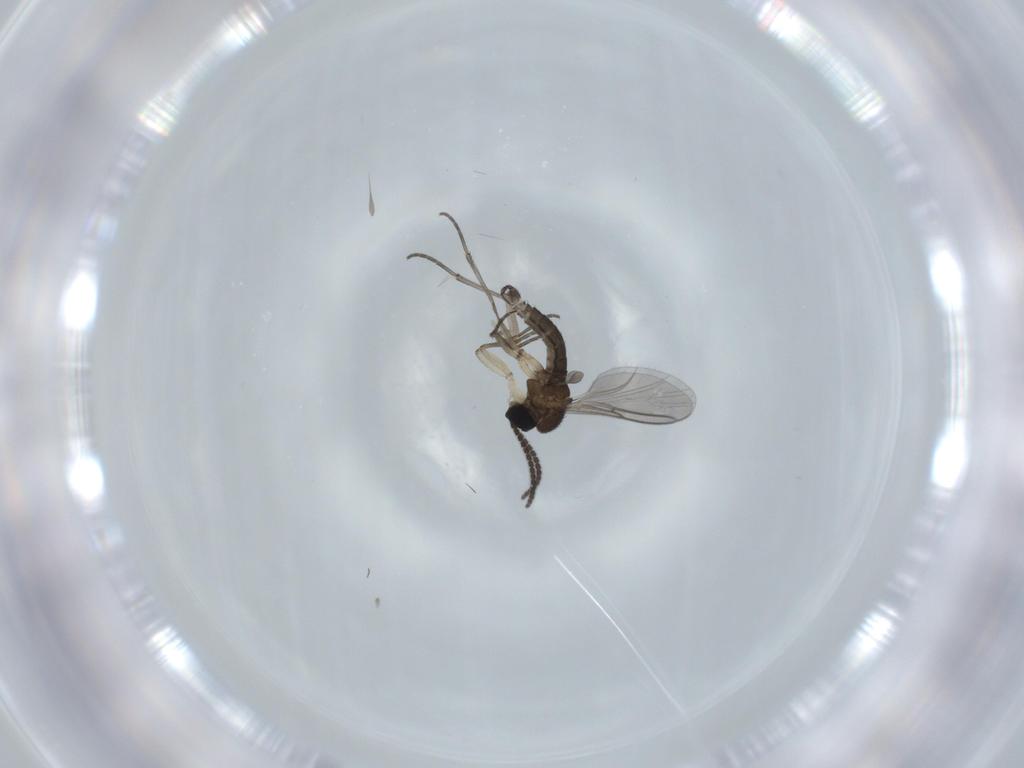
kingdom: Animalia
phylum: Arthropoda
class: Insecta
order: Diptera
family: Sciaridae
